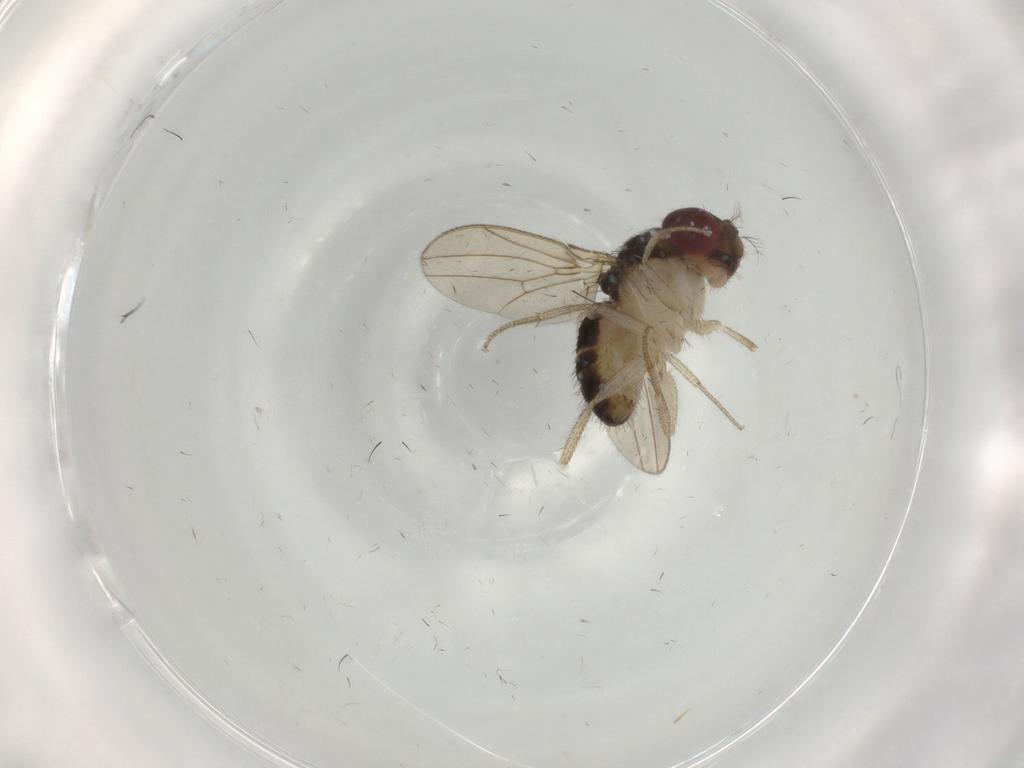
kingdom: Animalia
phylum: Arthropoda
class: Insecta
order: Diptera
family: Drosophilidae
